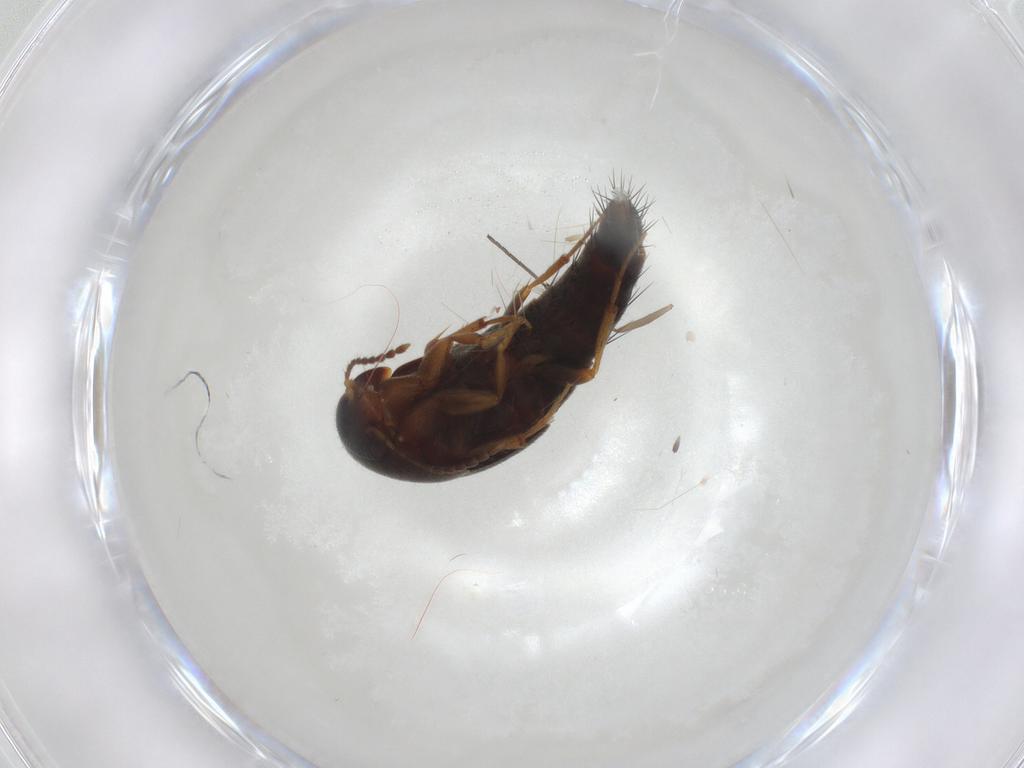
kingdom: Animalia
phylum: Arthropoda
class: Insecta
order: Coleoptera
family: Staphylinidae
